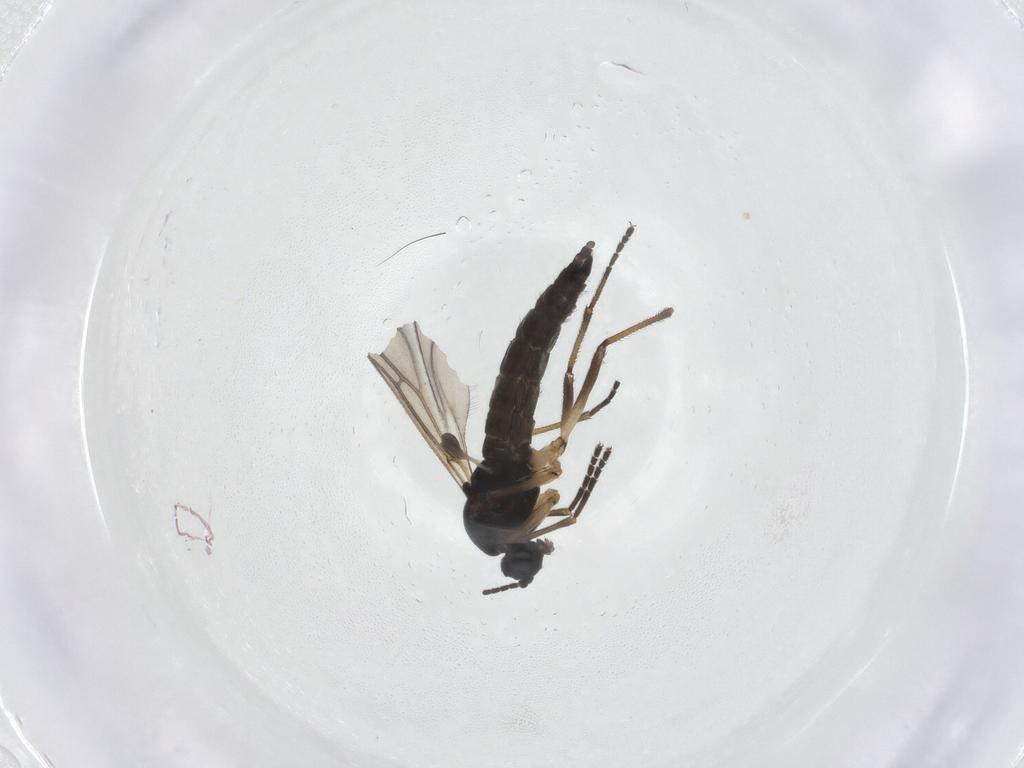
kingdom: Animalia
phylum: Arthropoda
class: Insecta
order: Diptera
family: Sciaridae
